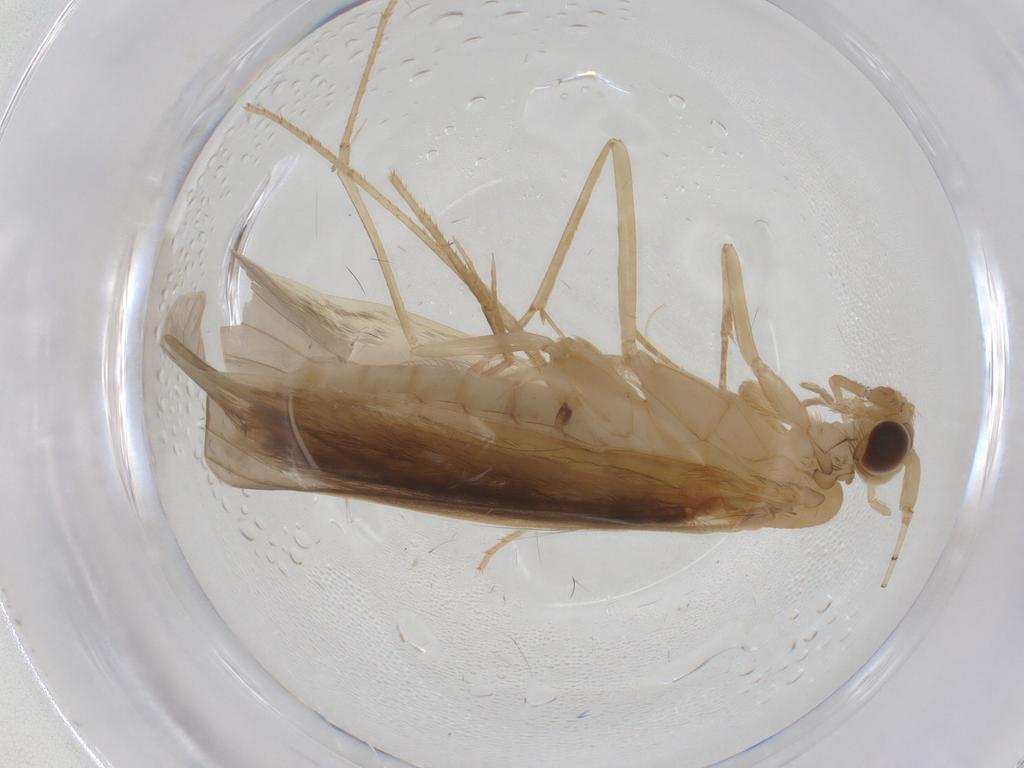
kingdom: Animalia
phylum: Arthropoda
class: Insecta
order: Trichoptera
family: Leptoceridae
